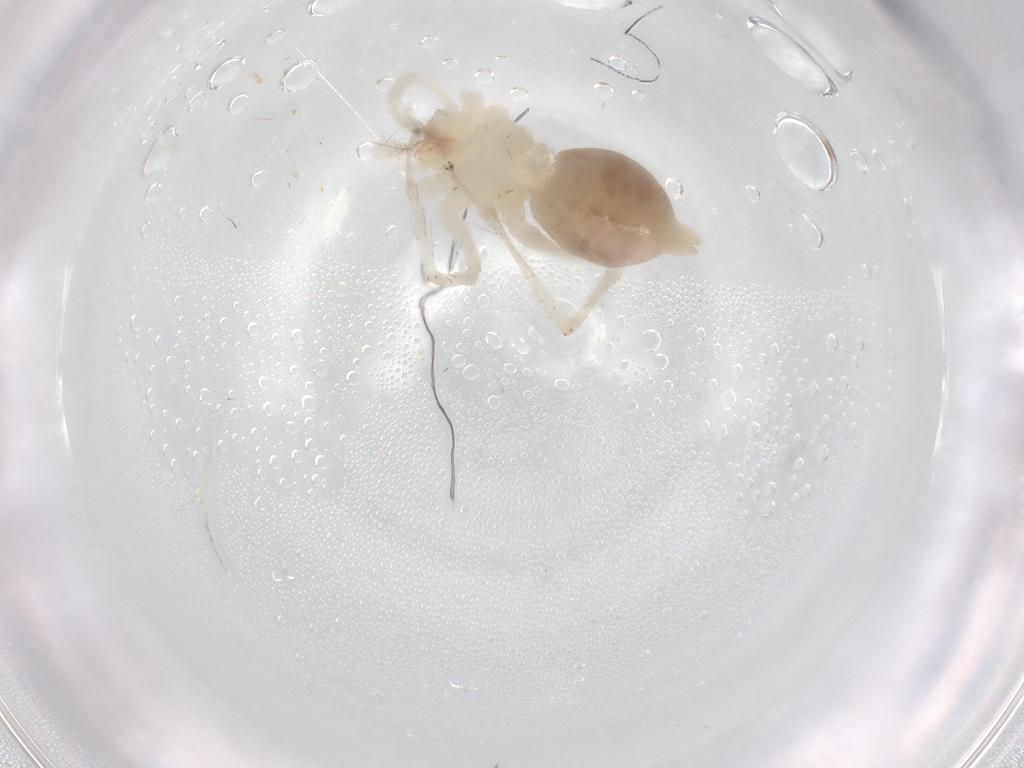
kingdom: Animalia
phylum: Arthropoda
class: Arachnida
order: Araneae
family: Anyphaenidae
